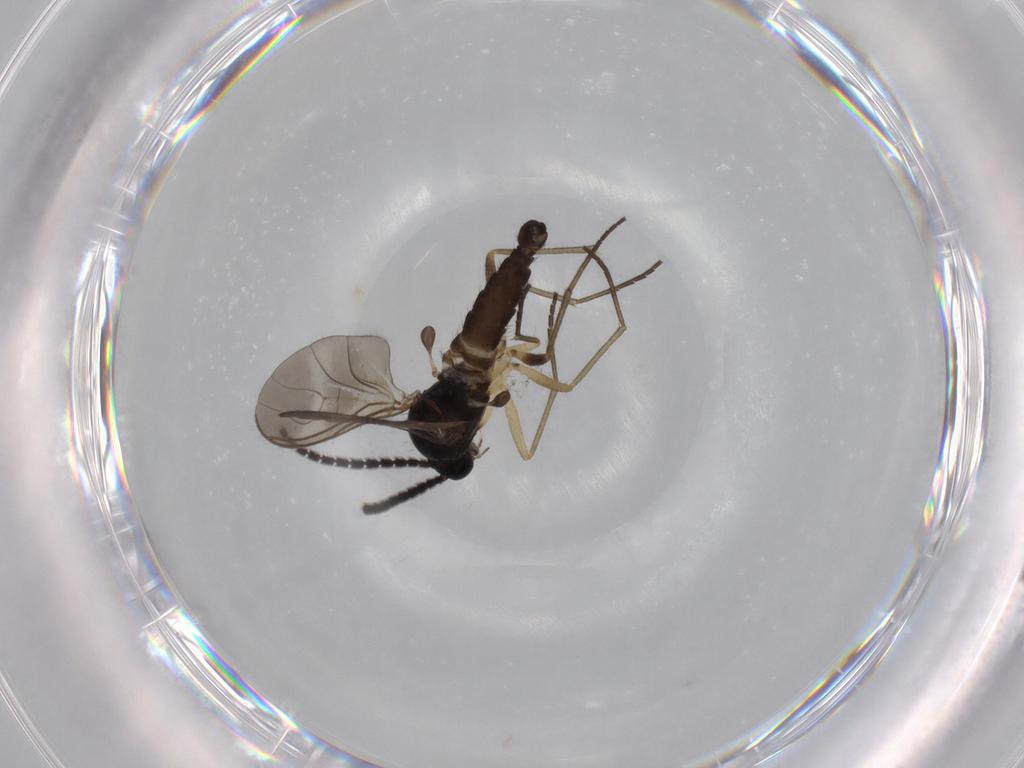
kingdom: Animalia
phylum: Arthropoda
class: Insecta
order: Diptera
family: Sciaridae
